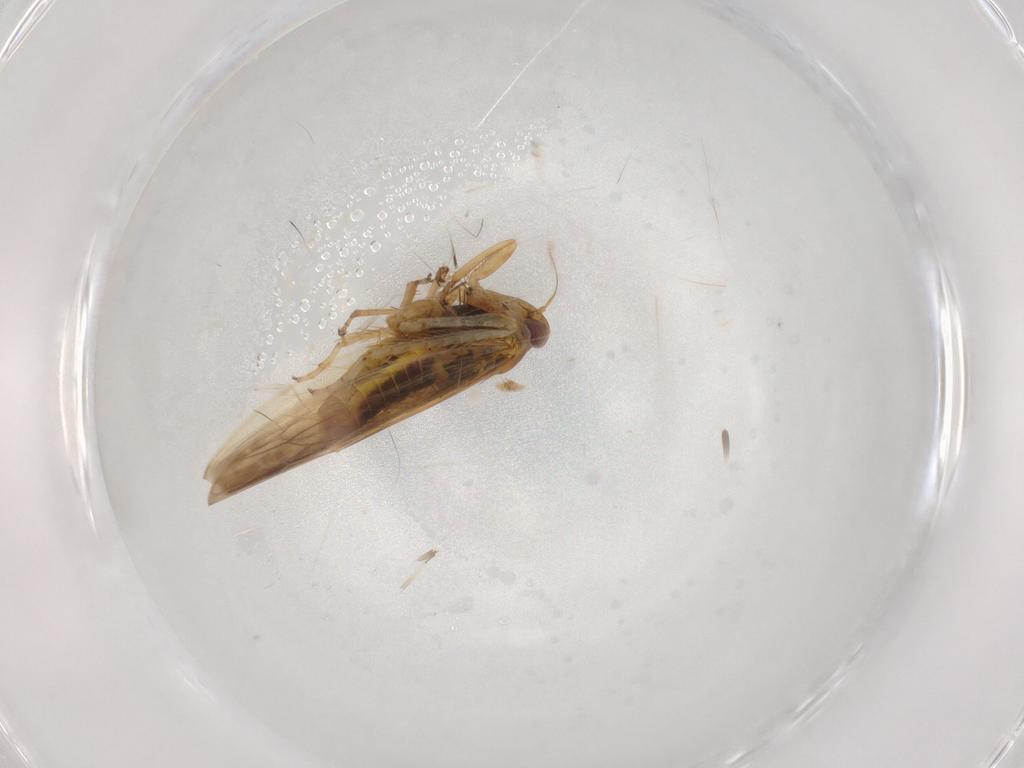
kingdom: Animalia
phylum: Arthropoda
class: Insecta
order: Hemiptera
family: Cicadellidae
